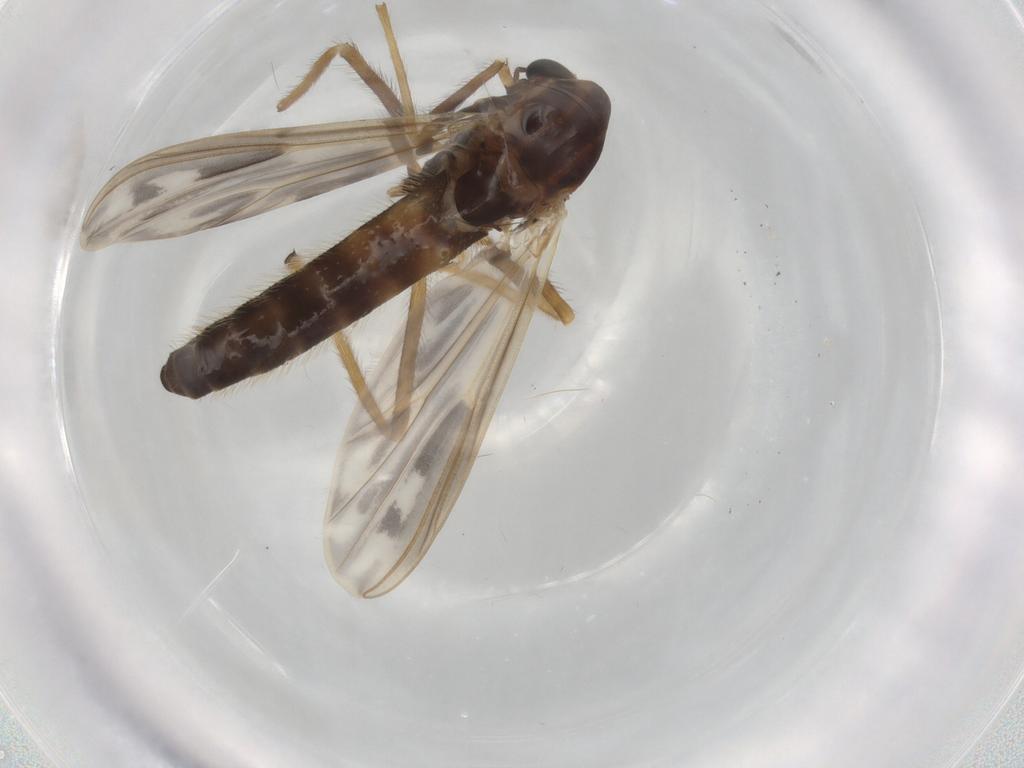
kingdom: Animalia
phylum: Arthropoda
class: Insecta
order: Diptera
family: Chironomidae
